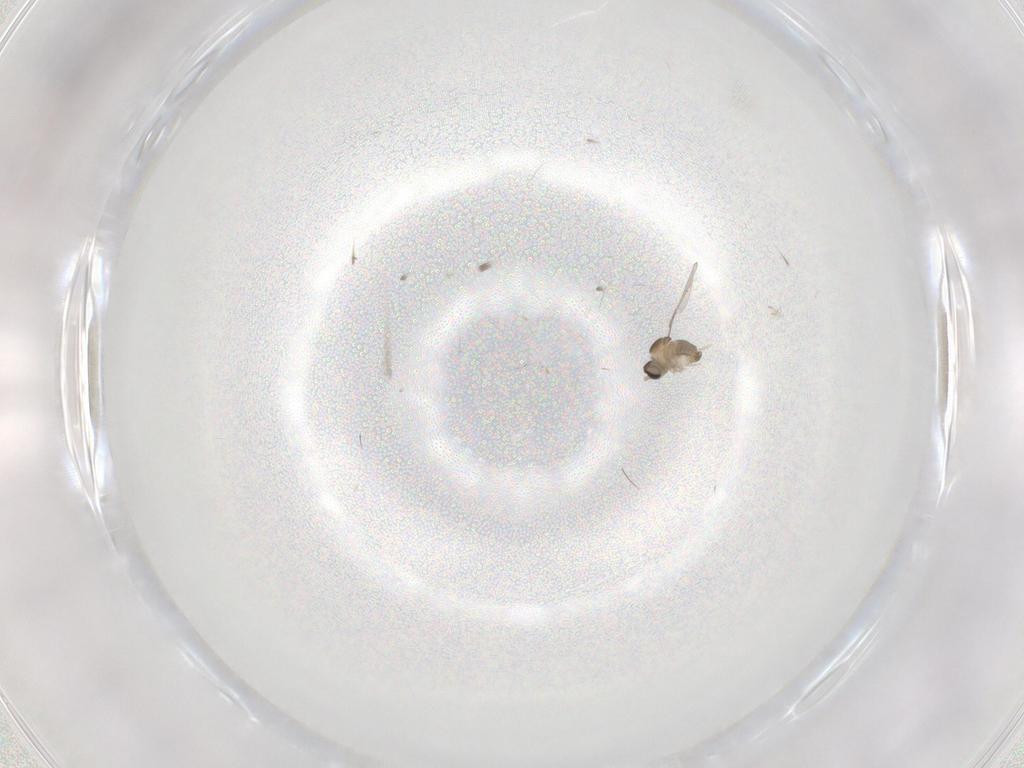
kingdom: Animalia
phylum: Arthropoda
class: Insecta
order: Diptera
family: Cecidomyiidae
